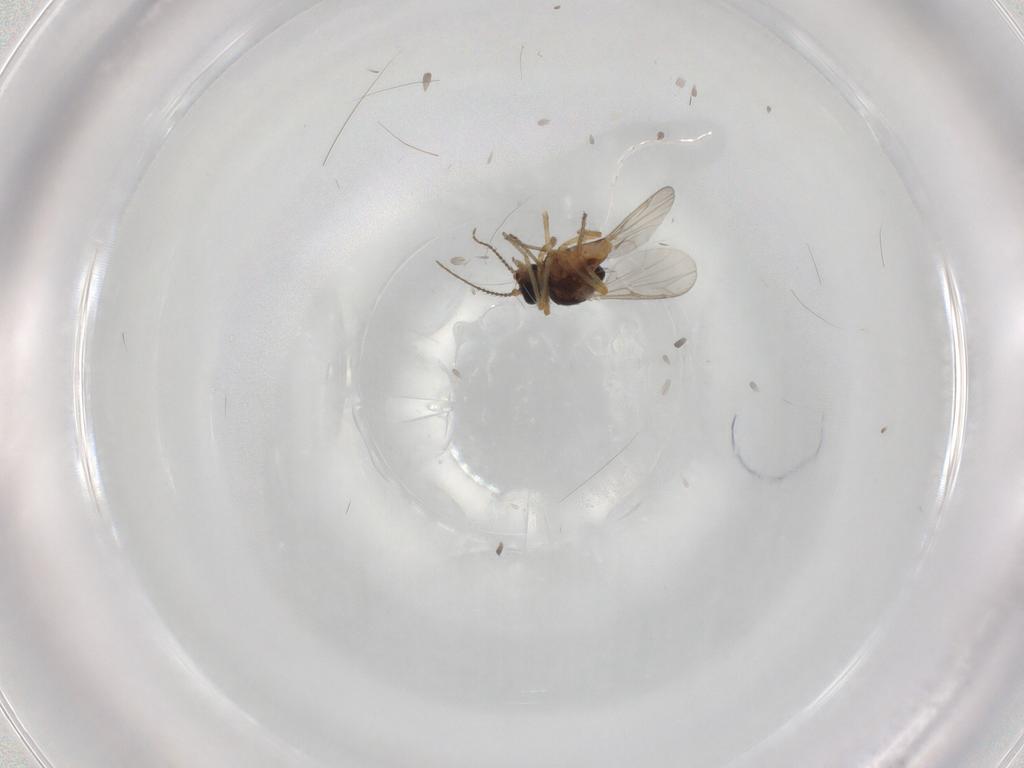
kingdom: Animalia
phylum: Arthropoda
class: Insecta
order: Diptera
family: Ceratopogonidae
